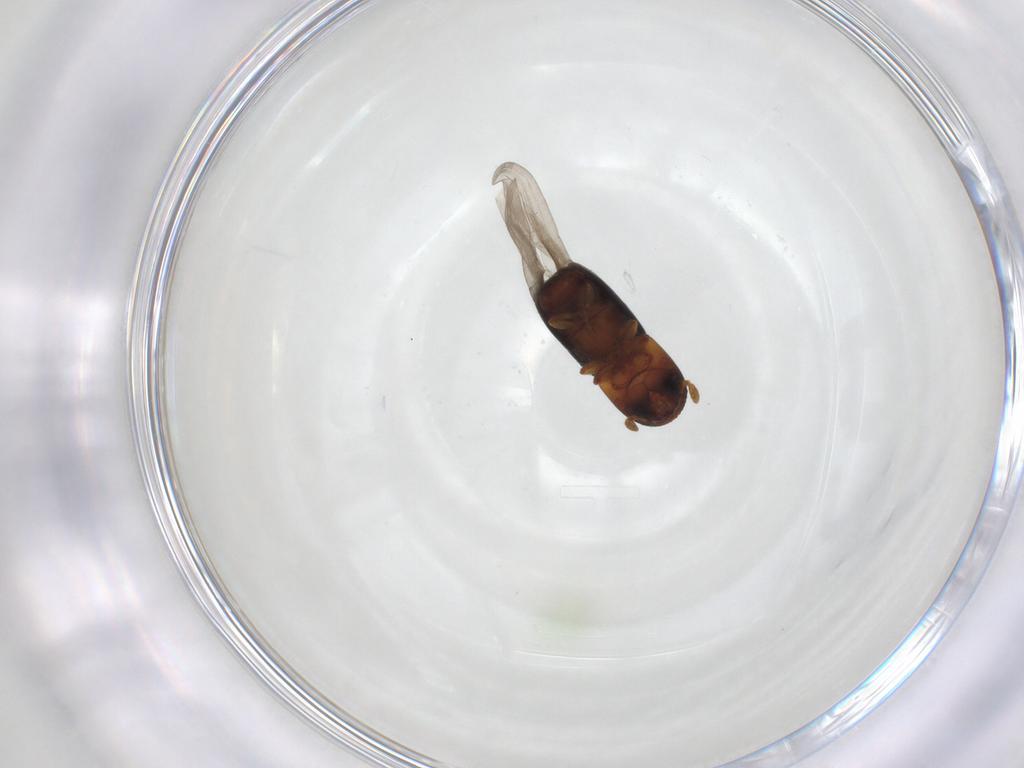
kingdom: Animalia
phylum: Arthropoda
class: Insecta
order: Coleoptera
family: Curculionidae
